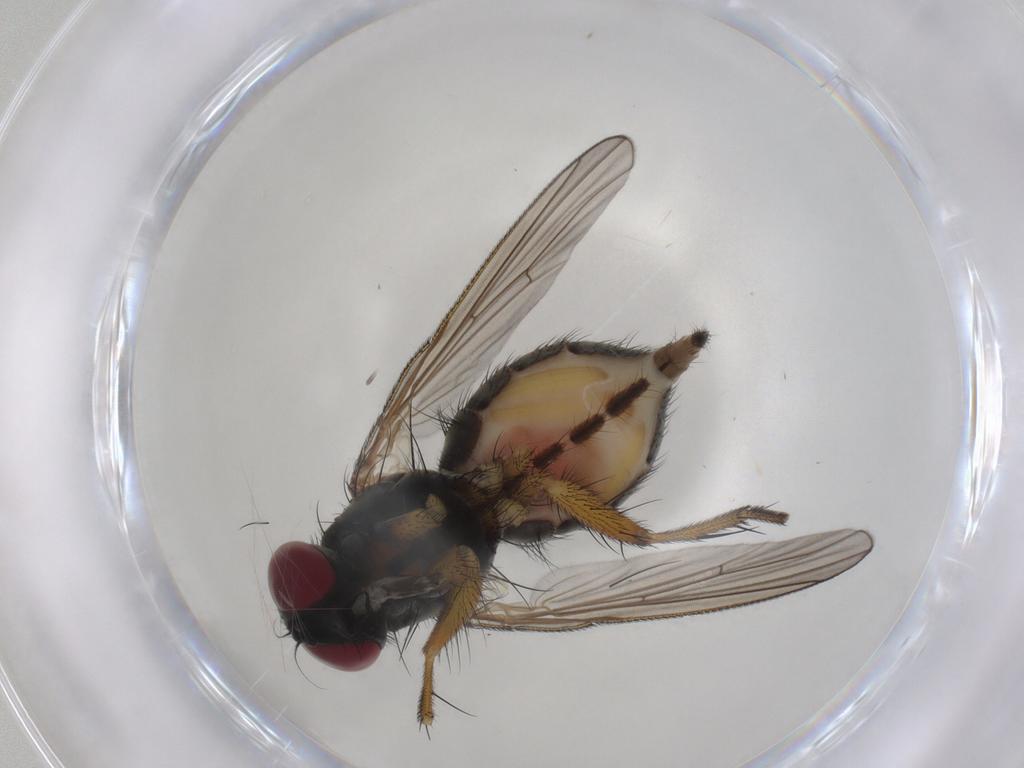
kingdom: Animalia
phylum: Arthropoda
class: Insecta
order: Diptera
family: Muscidae
